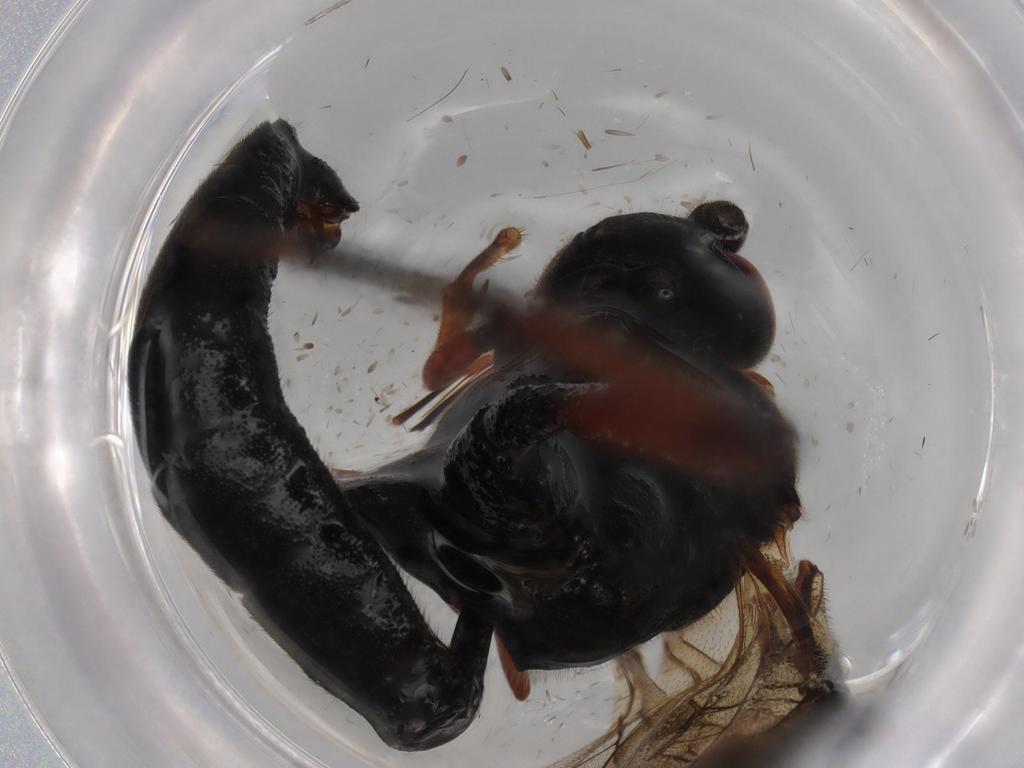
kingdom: Animalia
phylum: Arthropoda
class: Insecta
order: Hymenoptera
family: Ichneumonidae
